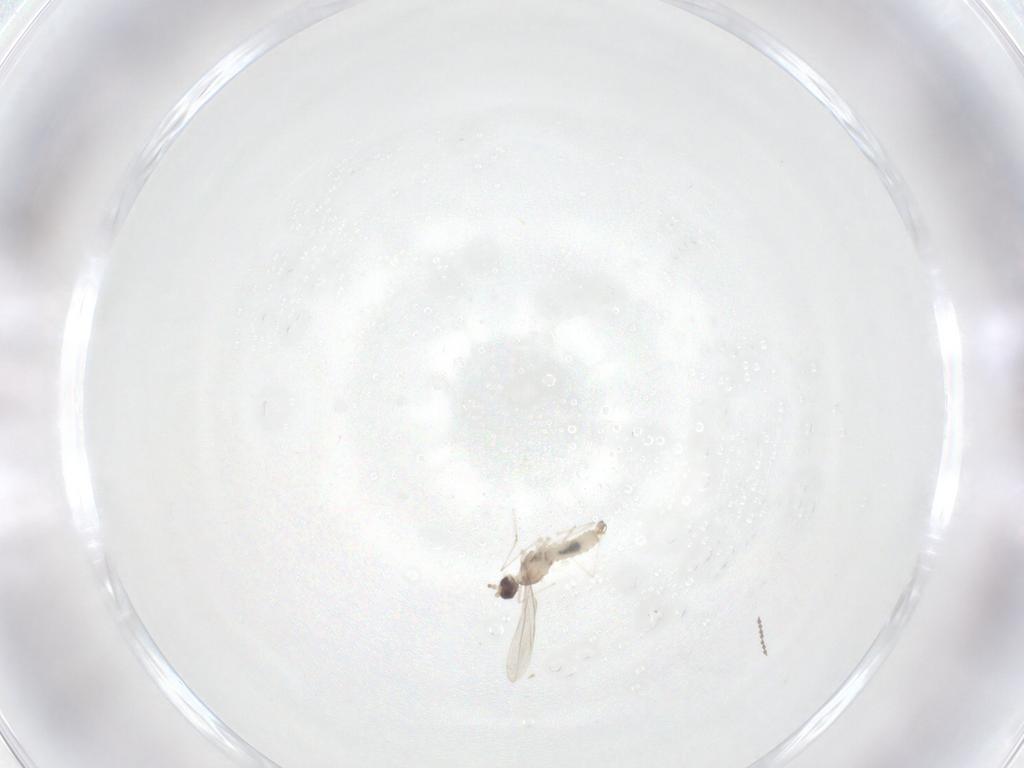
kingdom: Animalia
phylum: Arthropoda
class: Insecta
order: Diptera
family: Cecidomyiidae
